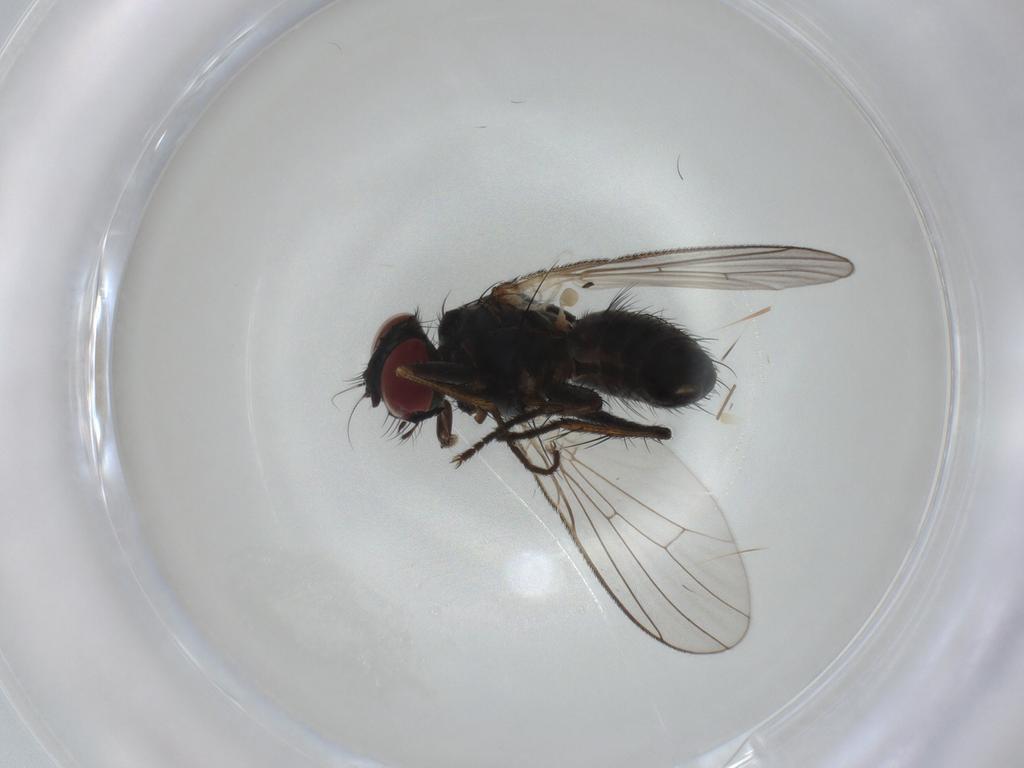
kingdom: Animalia
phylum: Arthropoda
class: Insecta
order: Diptera
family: Muscidae
